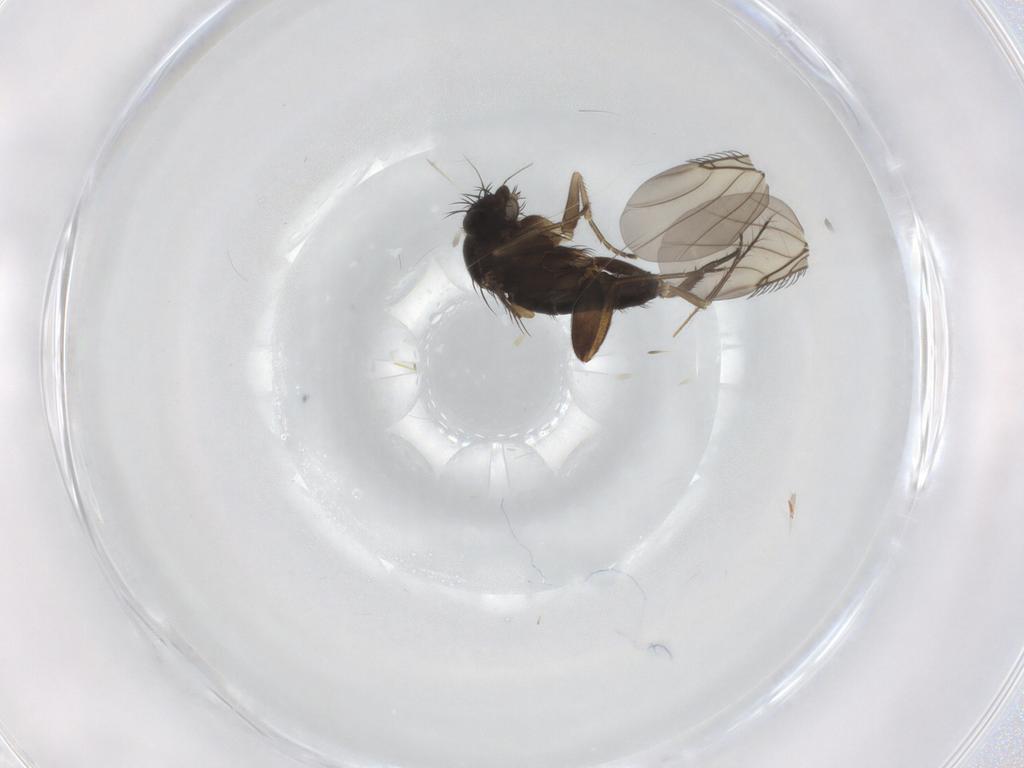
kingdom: Animalia
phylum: Arthropoda
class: Insecta
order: Diptera
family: Phoridae
